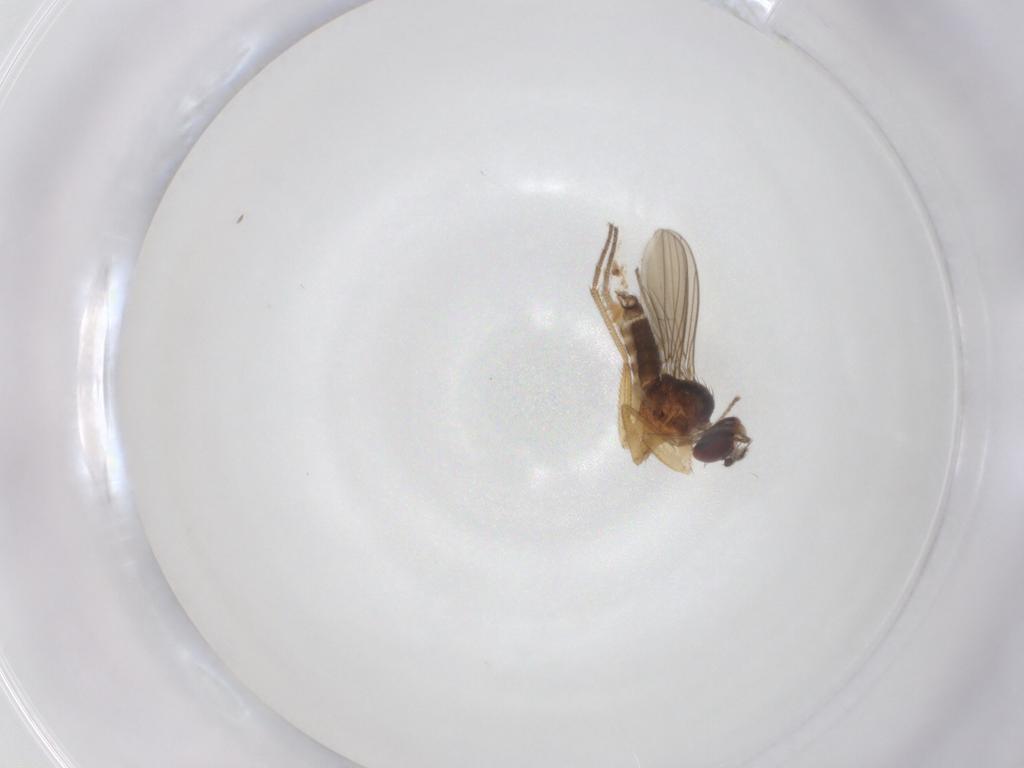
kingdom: Animalia
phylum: Arthropoda
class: Insecta
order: Diptera
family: Dolichopodidae
